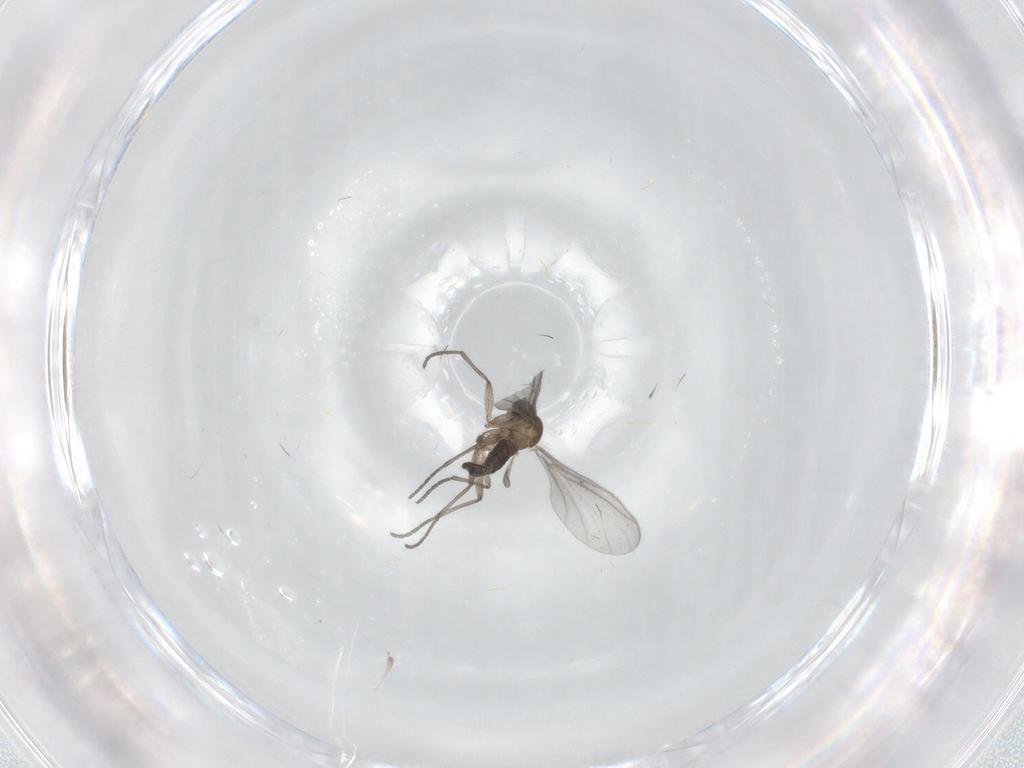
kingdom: Animalia
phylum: Arthropoda
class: Insecta
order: Diptera
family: Sciaridae
